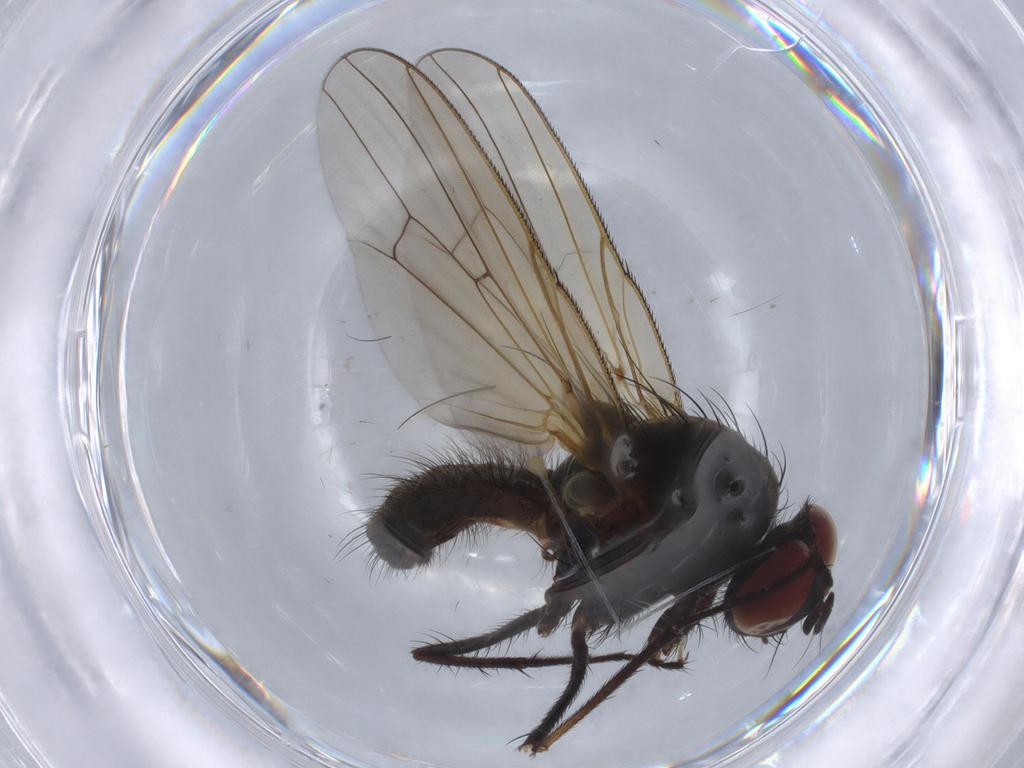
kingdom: Animalia
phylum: Arthropoda
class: Insecta
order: Diptera
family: Anthomyiidae
